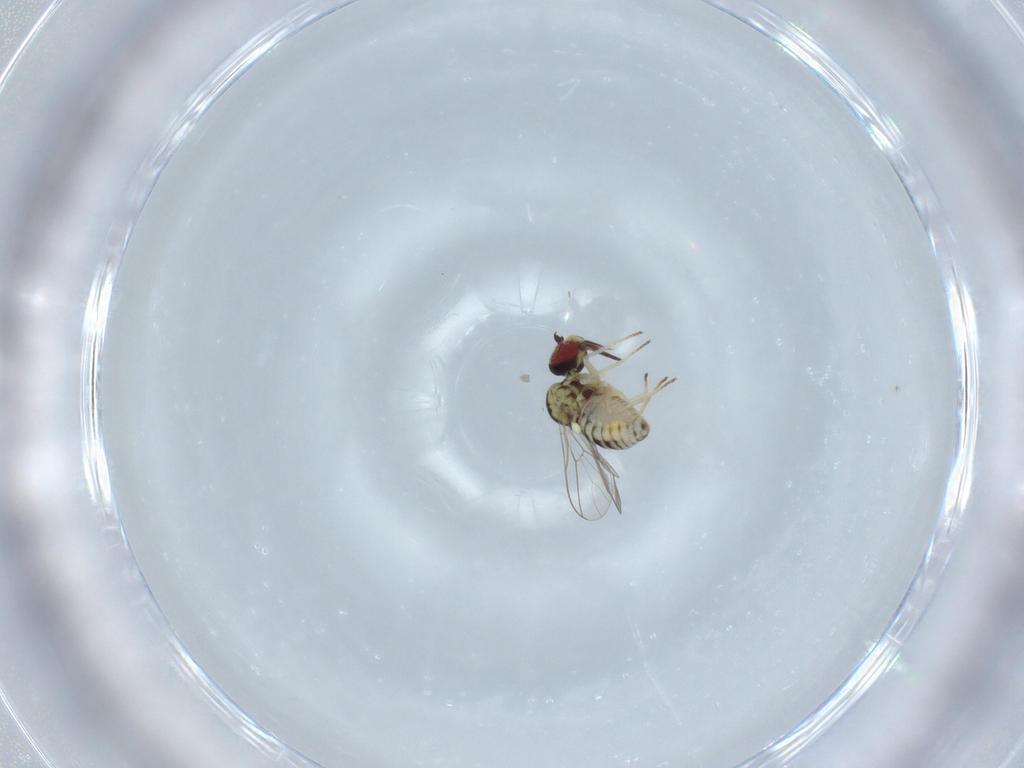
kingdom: Animalia
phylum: Arthropoda
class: Insecta
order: Diptera
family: Bombyliidae
